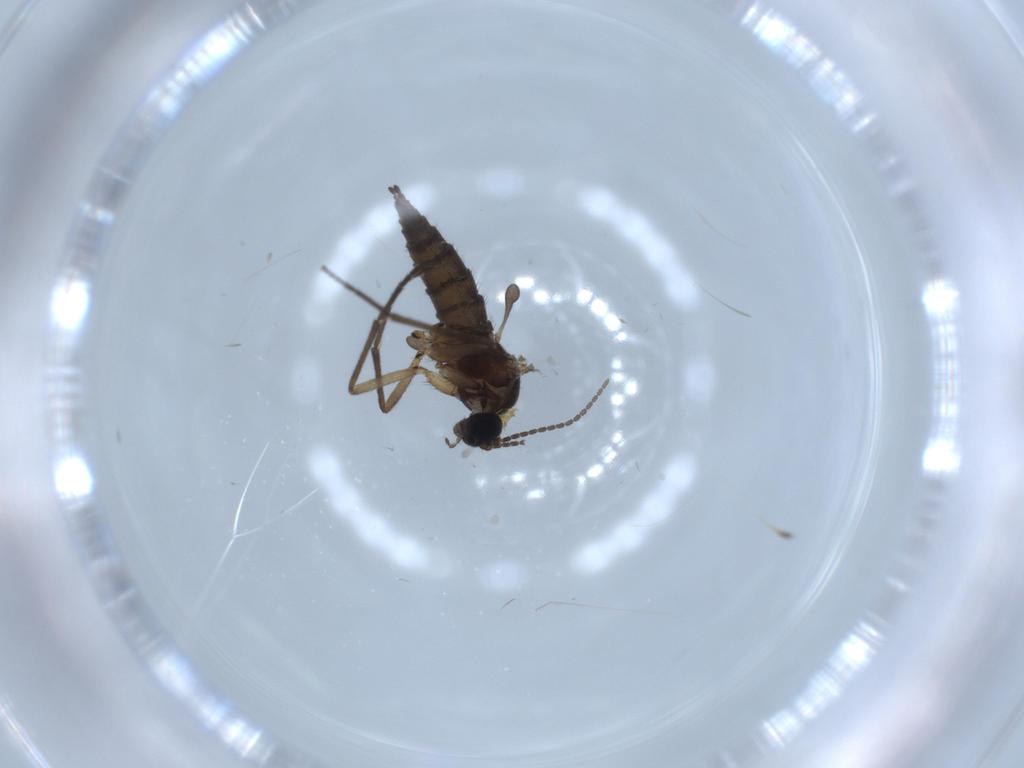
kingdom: Animalia
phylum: Arthropoda
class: Insecta
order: Diptera
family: Sciaridae
